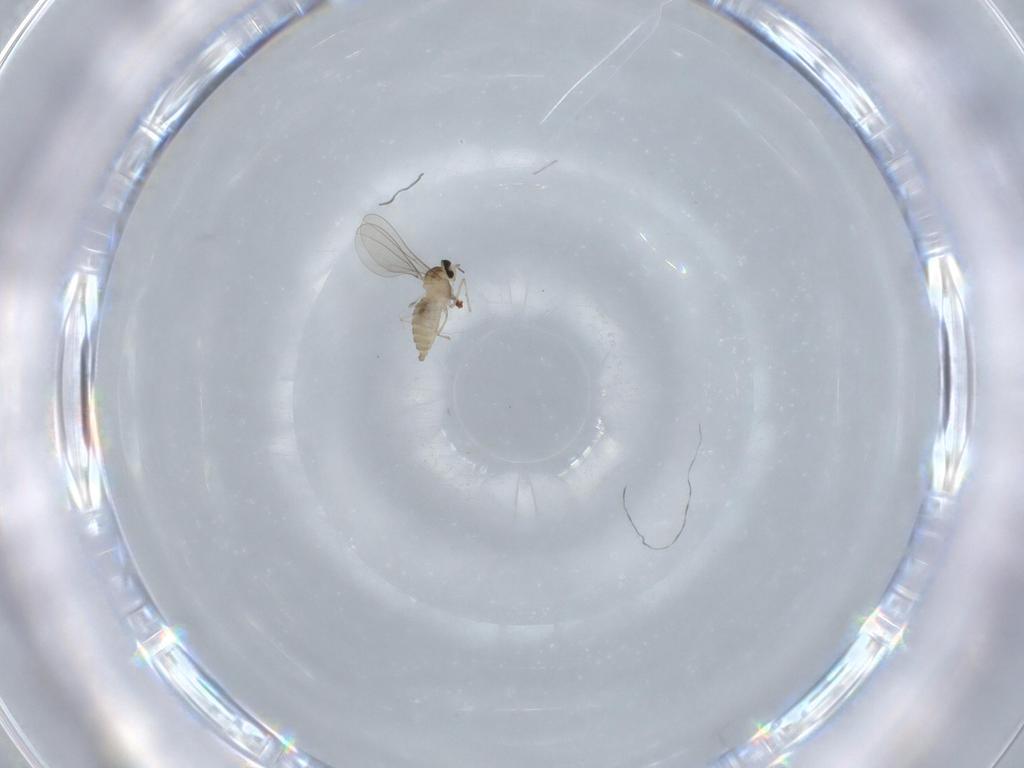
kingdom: Animalia
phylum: Arthropoda
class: Insecta
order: Diptera
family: Cecidomyiidae
